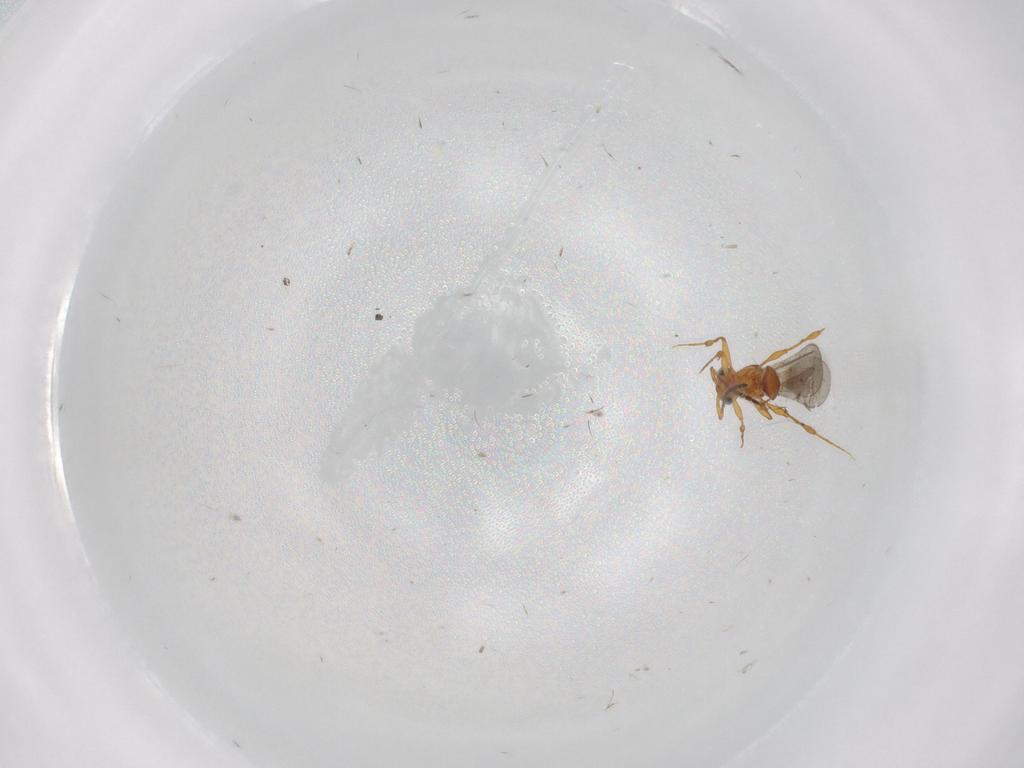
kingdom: Animalia
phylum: Arthropoda
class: Insecta
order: Hymenoptera
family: Platygastridae
